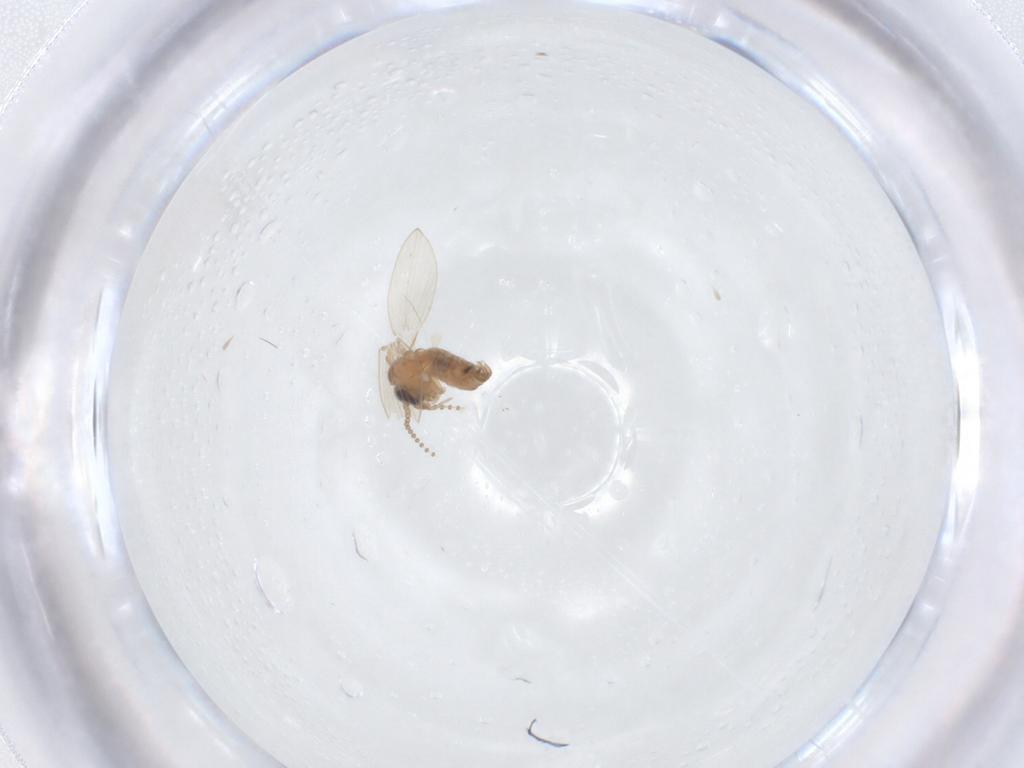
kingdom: Animalia
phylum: Arthropoda
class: Insecta
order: Diptera
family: Psychodidae
